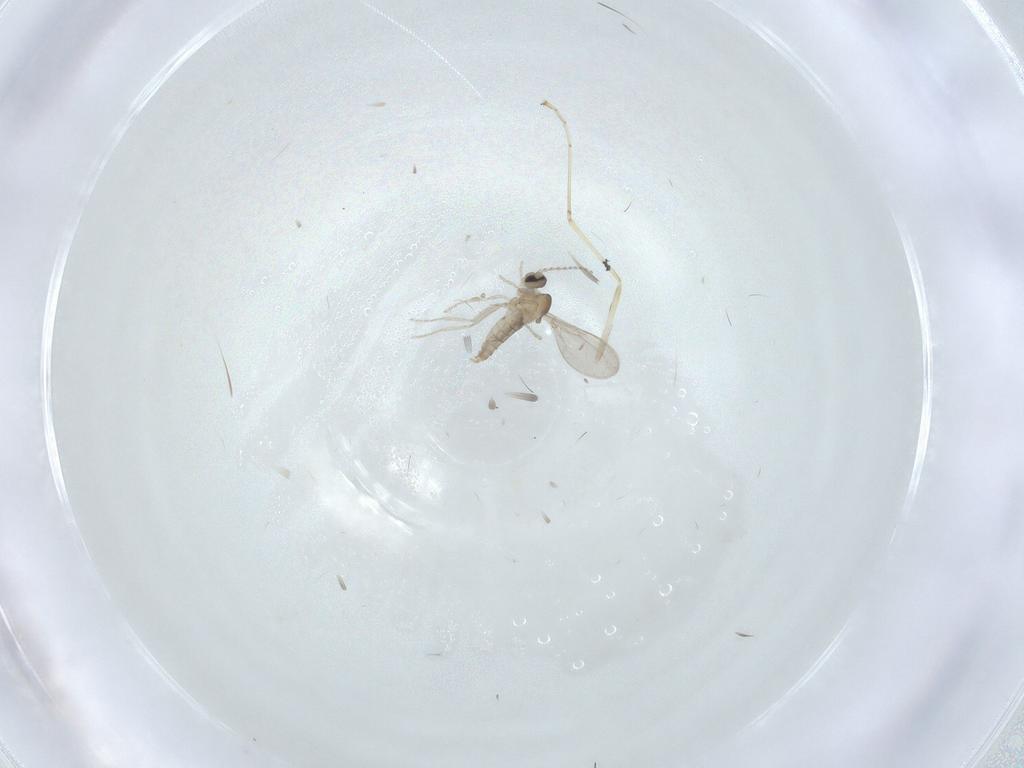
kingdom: Animalia
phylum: Arthropoda
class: Insecta
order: Diptera
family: Cecidomyiidae
